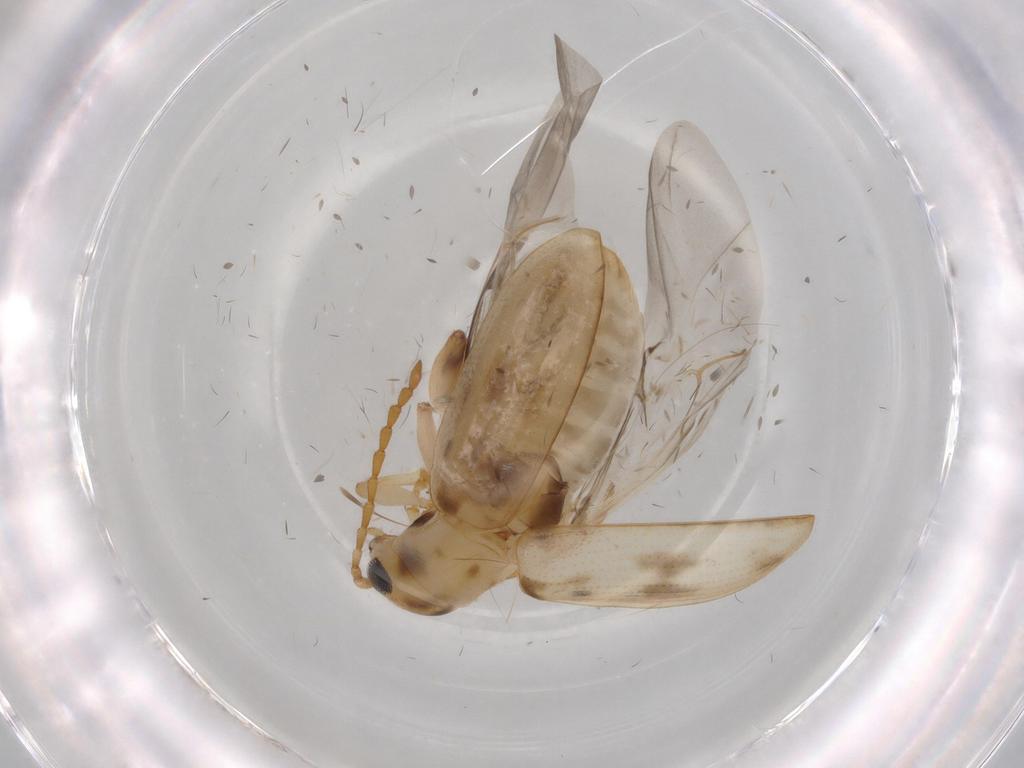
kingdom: Animalia
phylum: Arthropoda
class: Insecta
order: Coleoptera
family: Chrysomelidae
